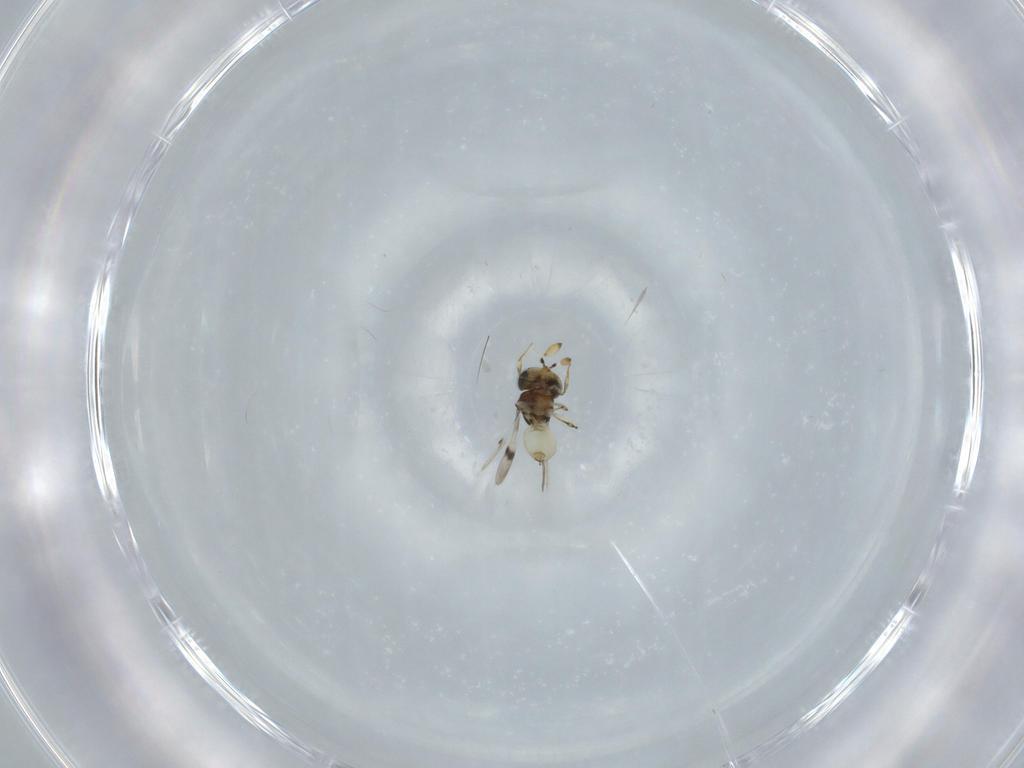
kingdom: Animalia
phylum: Arthropoda
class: Insecta
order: Hymenoptera
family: Scelionidae
